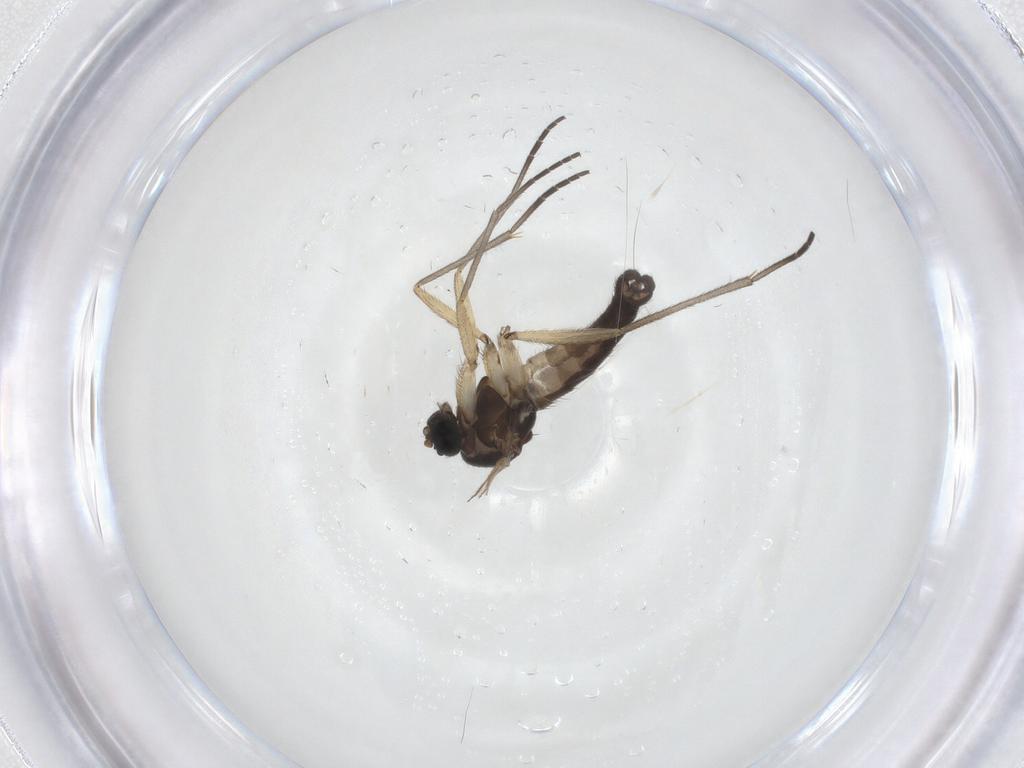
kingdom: Animalia
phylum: Arthropoda
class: Insecta
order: Diptera
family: Sciaridae
